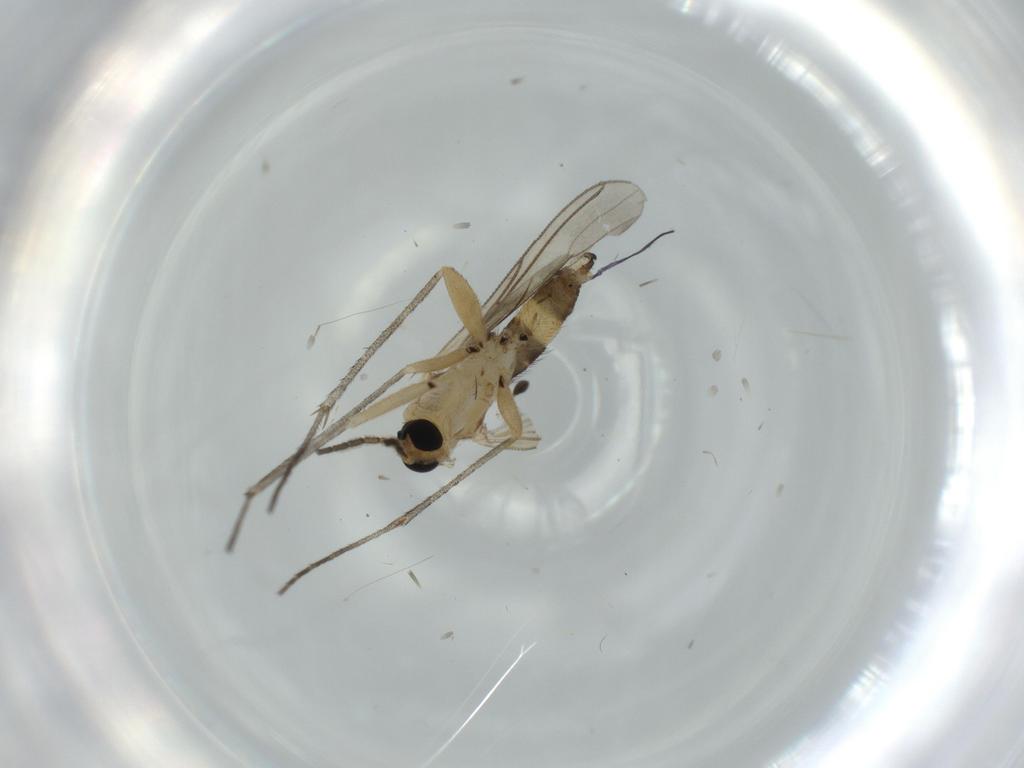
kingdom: Animalia
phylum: Arthropoda
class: Insecta
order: Diptera
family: Sciaridae
